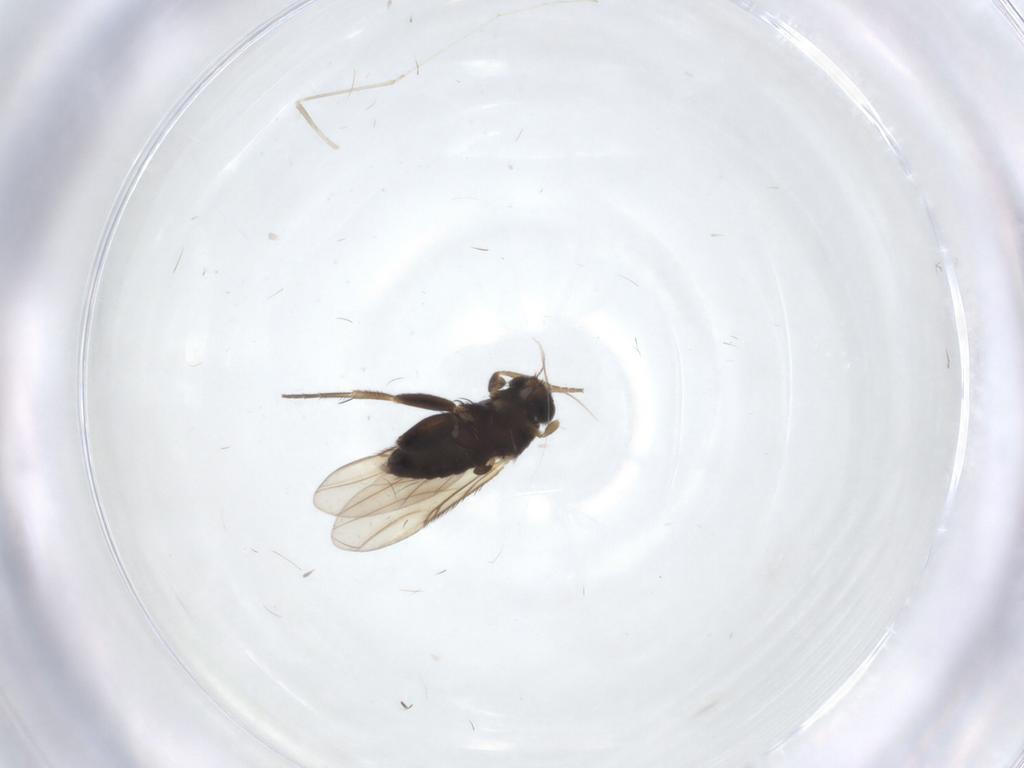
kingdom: Animalia
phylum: Arthropoda
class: Insecta
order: Diptera
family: Phoridae
